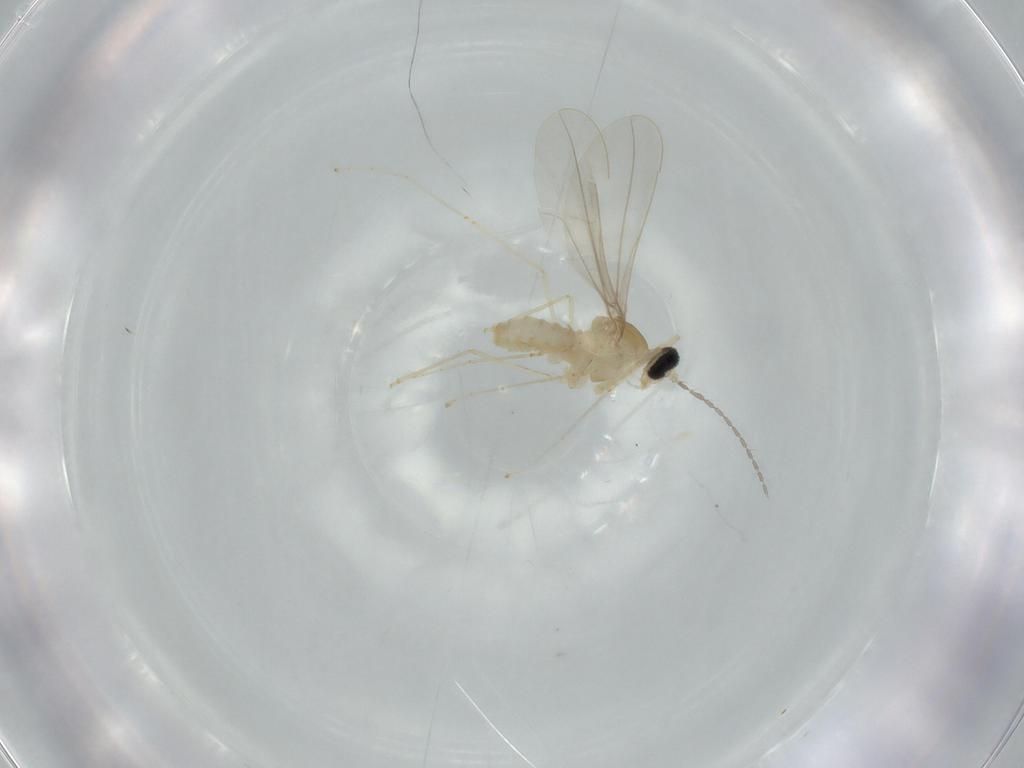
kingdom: Animalia
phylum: Arthropoda
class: Insecta
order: Diptera
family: Cecidomyiidae
